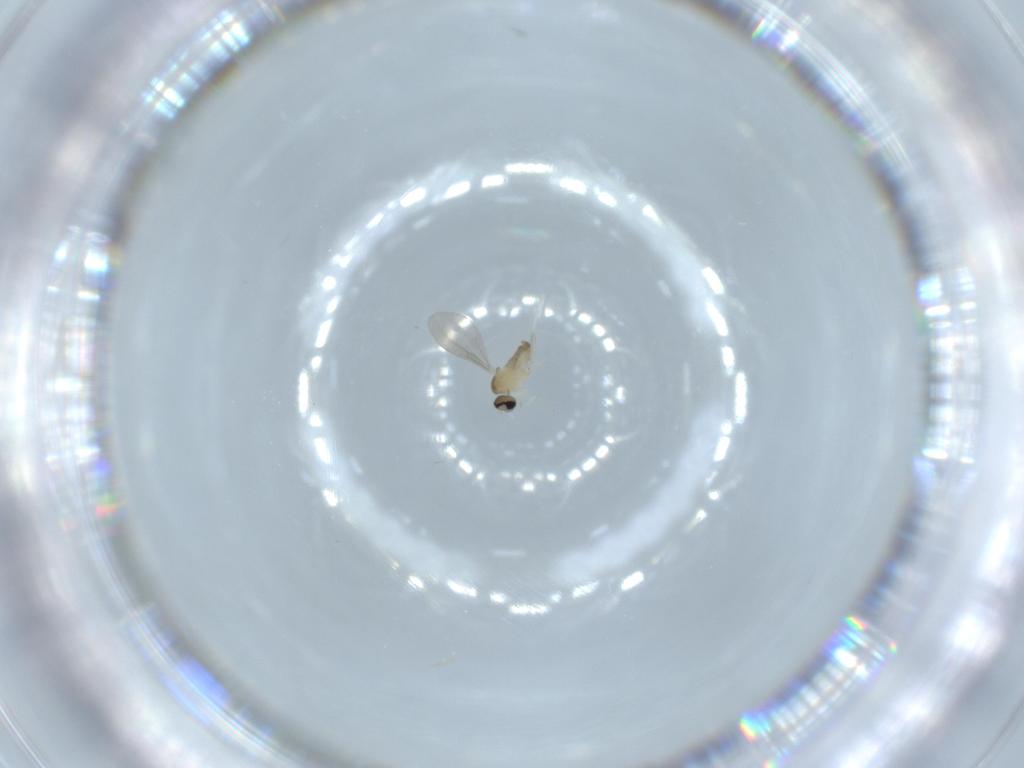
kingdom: Animalia
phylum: Arthropoda
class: Insecta
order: Diptera
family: Cecidomyiidae
